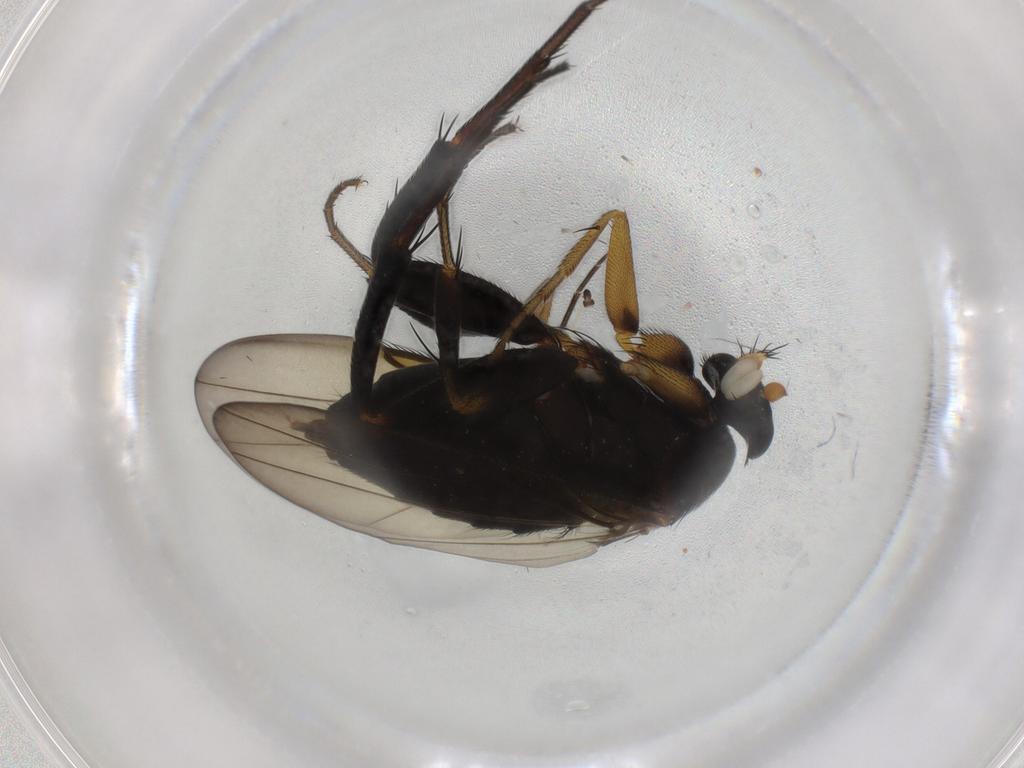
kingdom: Animalia
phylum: Arthropoda
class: Insecta
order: Diptera
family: Phoridae
